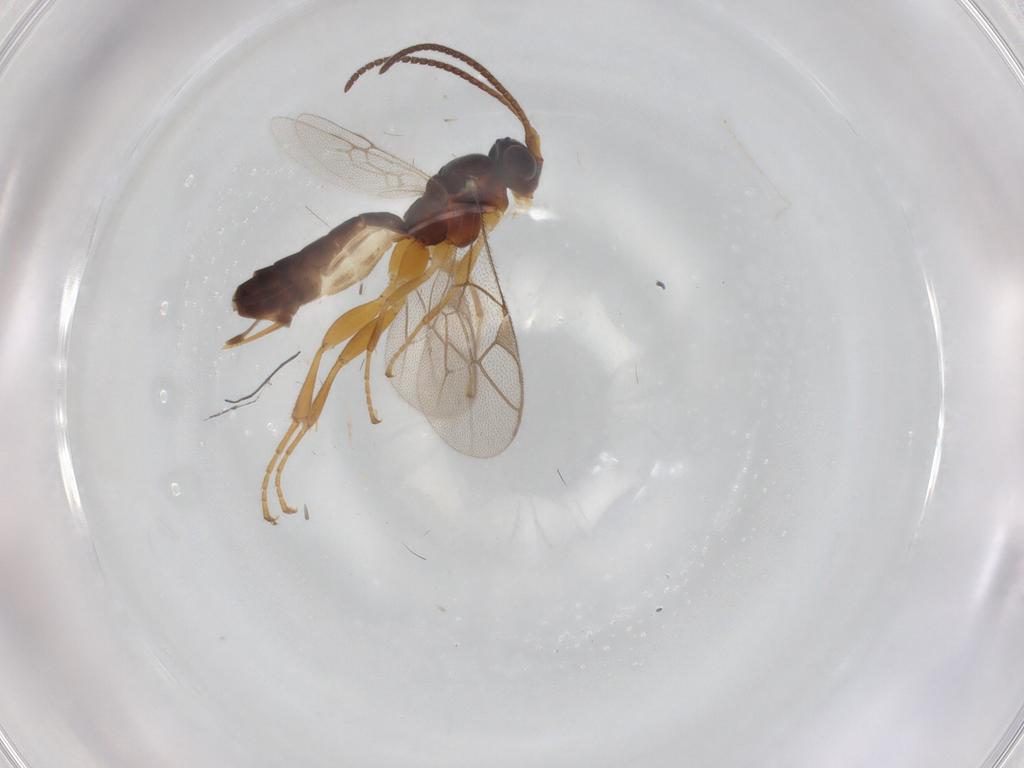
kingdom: Animalia
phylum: Arthropoda
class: Insecta
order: Hymenoptera
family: Ichneumonidae
